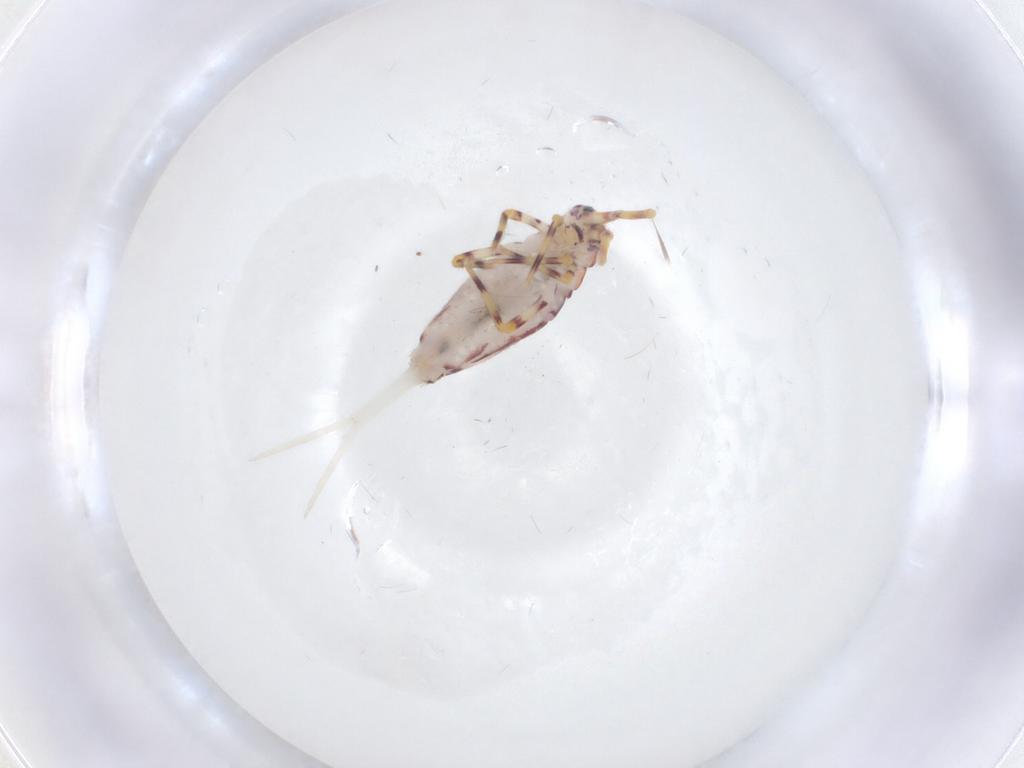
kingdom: Animalia
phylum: Arthropoda
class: Collembola
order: Entomobryomorpha
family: Entomobryidae
